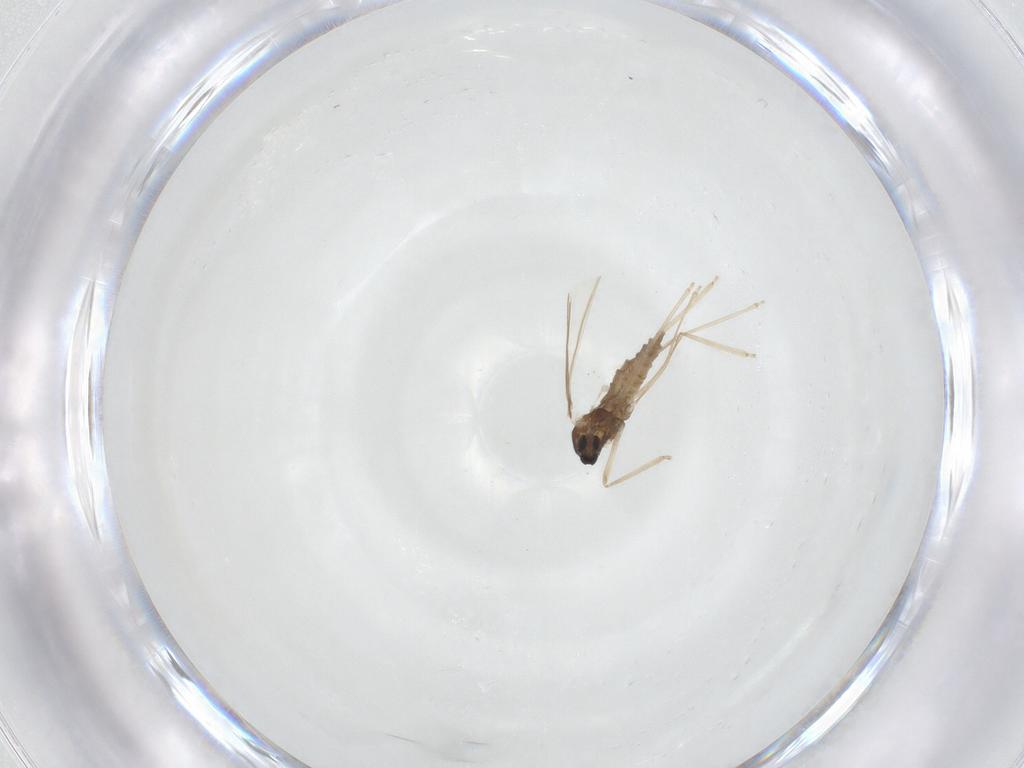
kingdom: Animalia
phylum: Arthropoda
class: Insecta
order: Diptera
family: Cecidomyiidae
